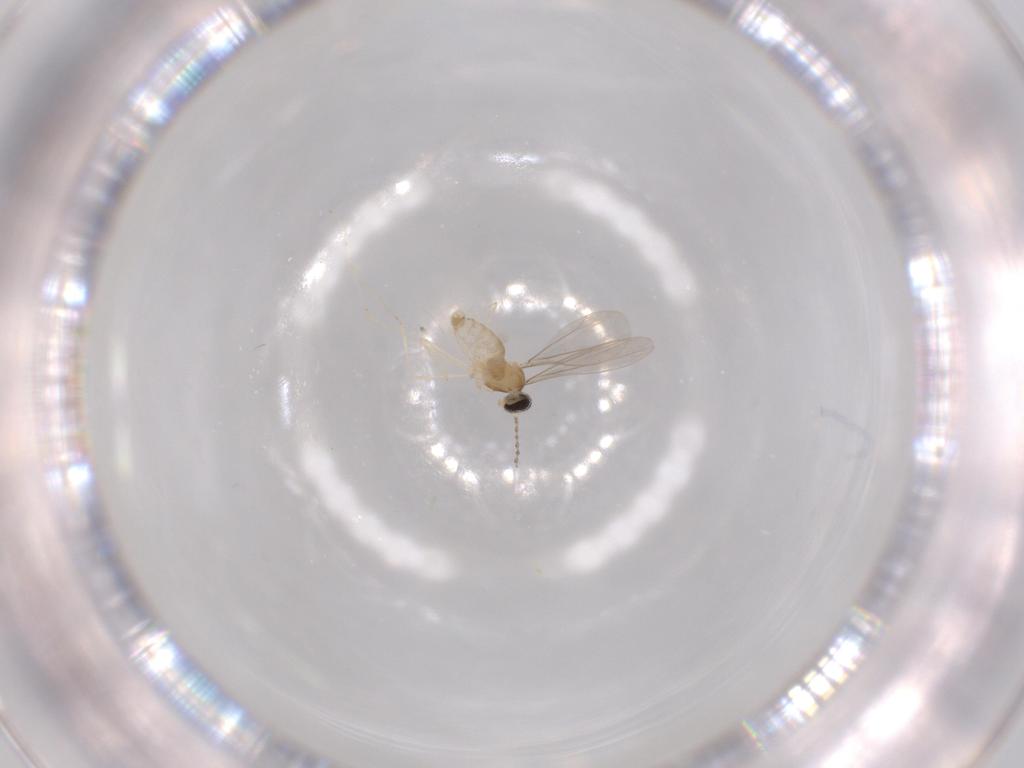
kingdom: Animalia
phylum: Arthropoda
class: Insecta
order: Diptera
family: Cecidomyiidae
